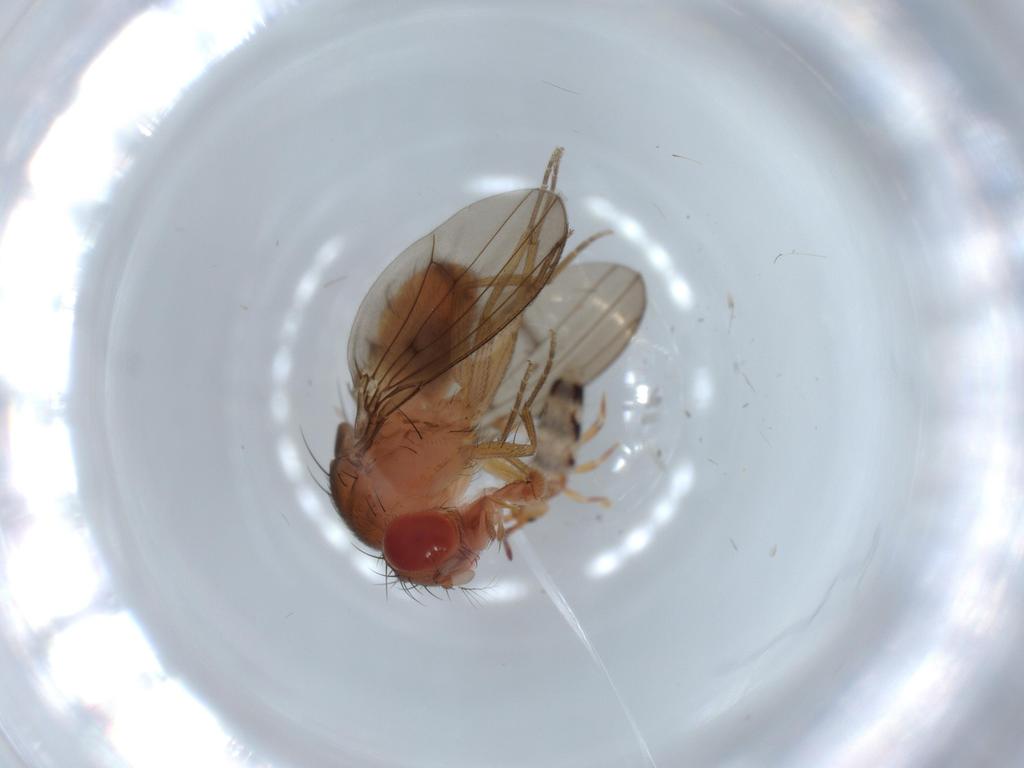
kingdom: Animalia
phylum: Arthropoda
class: Insecta
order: Diptera
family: Drosophilidae
